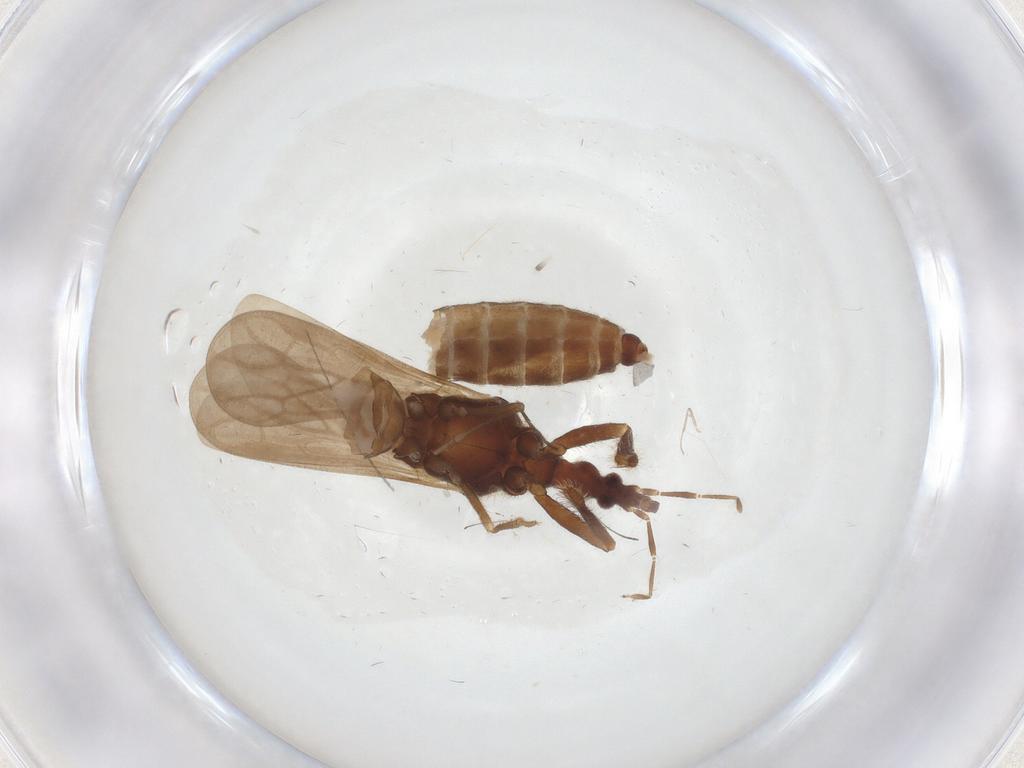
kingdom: Animalia
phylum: Arthropoda
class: Insecta
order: Hemiptera
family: Enicocephalidae
